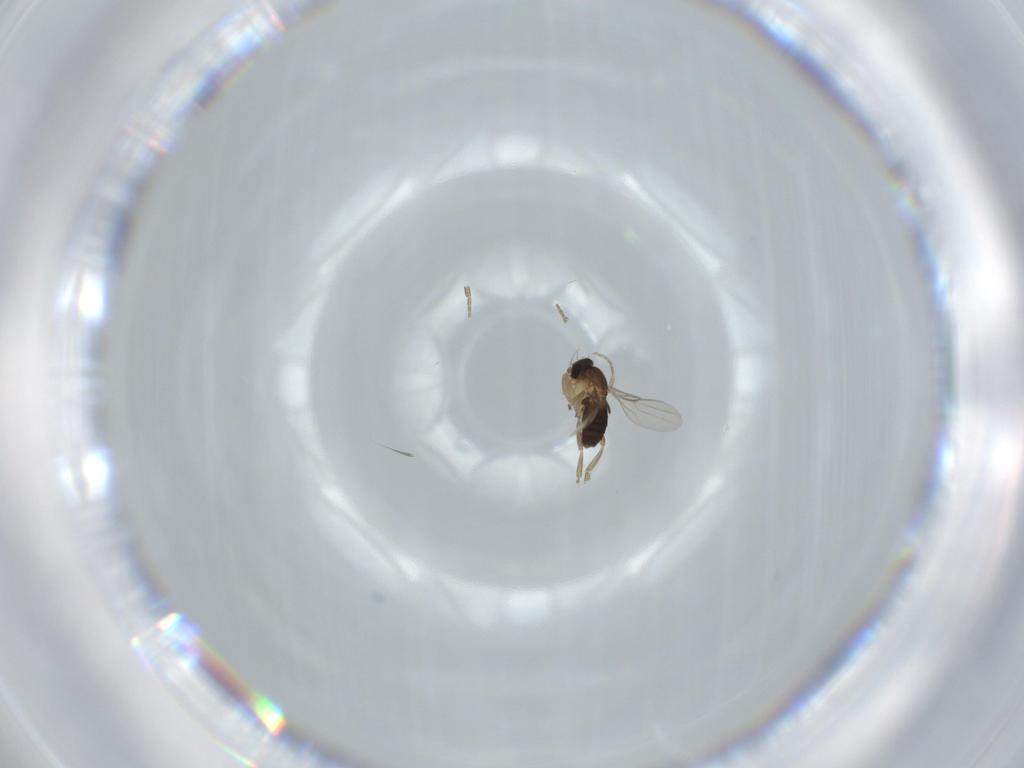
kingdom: Animalia
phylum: Arthropoda
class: Insecta
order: Diptera
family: Phoridae
